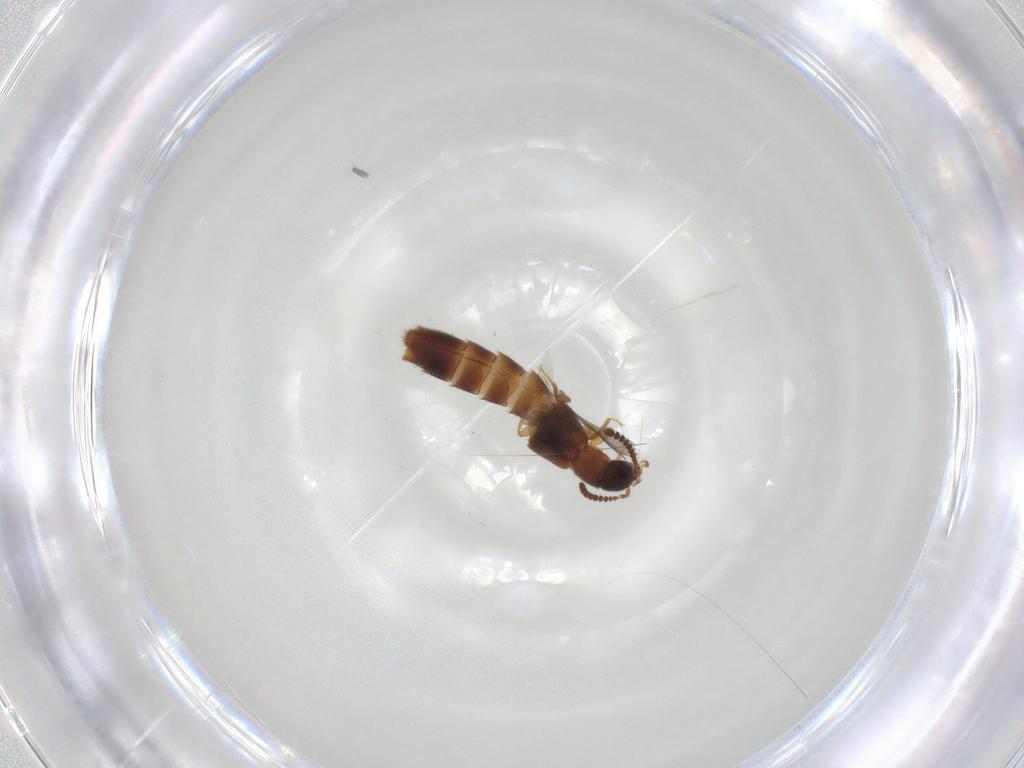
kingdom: Animalia
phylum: Arthropoda
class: Insecta
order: Coleoptera
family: Staphylinidae
